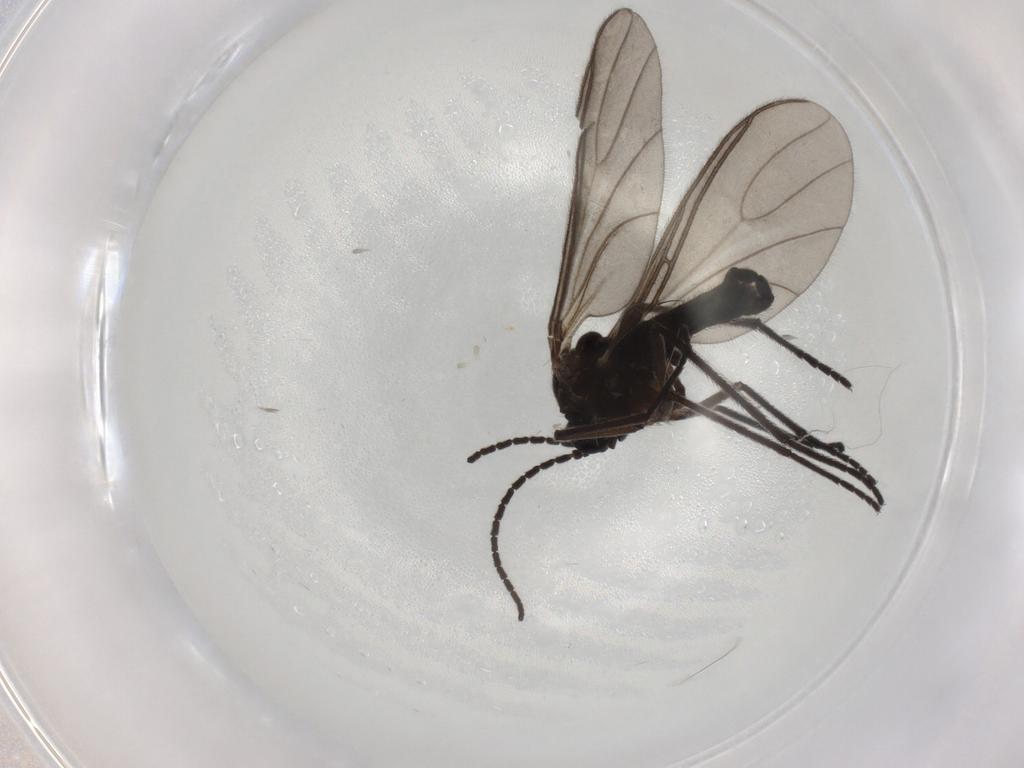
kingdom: Animalia
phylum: Arthropoda
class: Insecta
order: Diptera
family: Sciaridae
